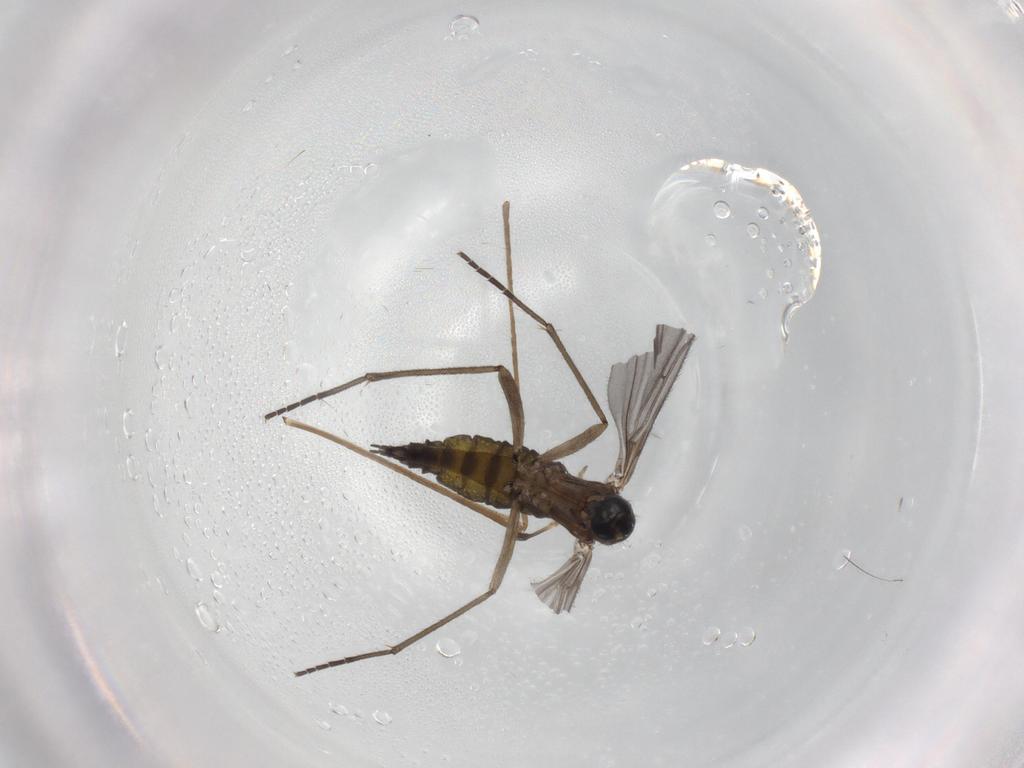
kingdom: Animalia
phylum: Arthropoda
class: Insecta
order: Diptera
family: Sciaridae
